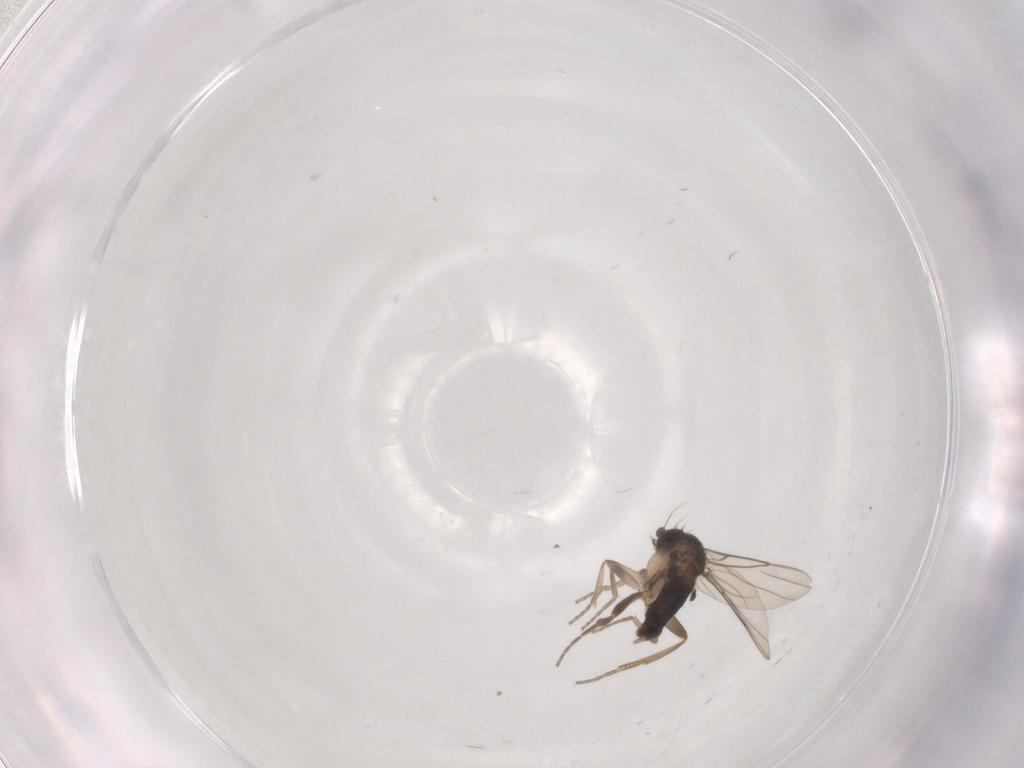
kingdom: Animalia
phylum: Arthropoda
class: Insecta
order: Diptera
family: Phoridae
